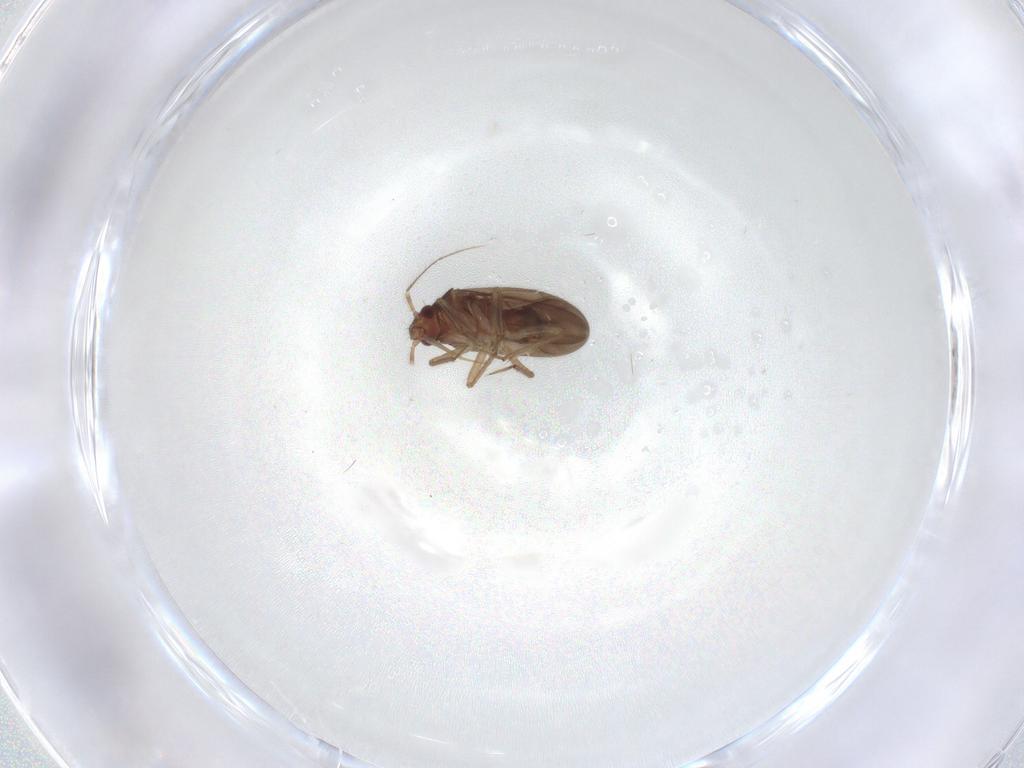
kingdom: Animalia
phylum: Arthropoda
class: Insecta
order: Hemiptera
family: Ceratocombidae
